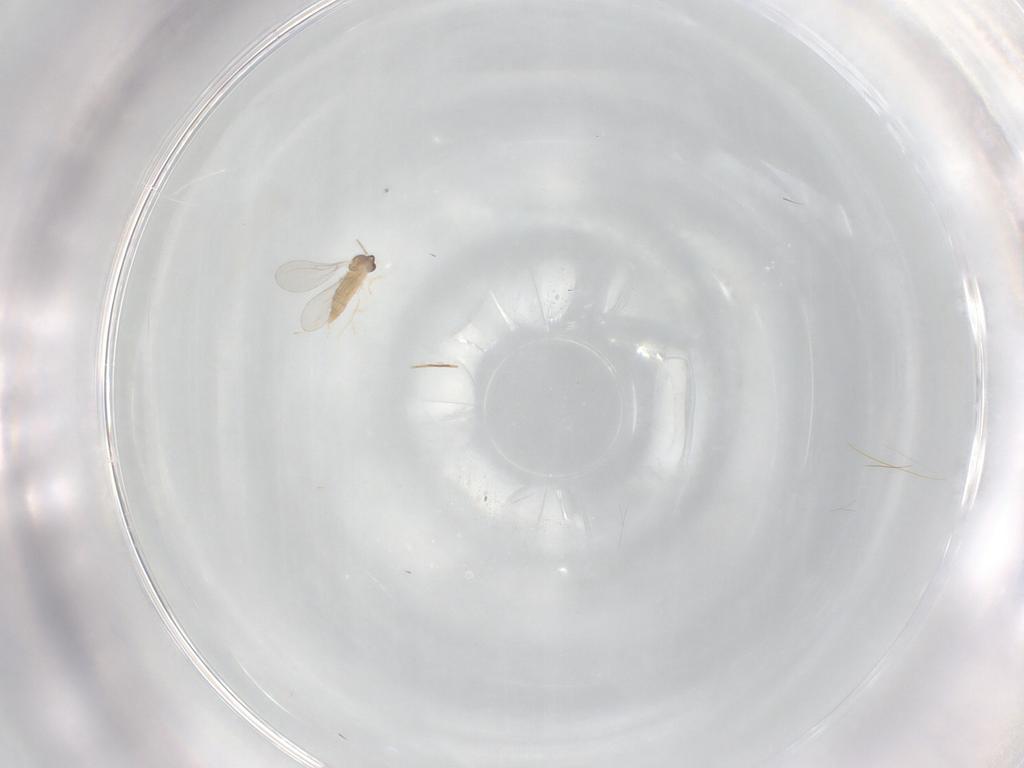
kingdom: Animalia
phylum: Arthropoda
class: Insecta
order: Diptera
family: Cecidomyiidae
